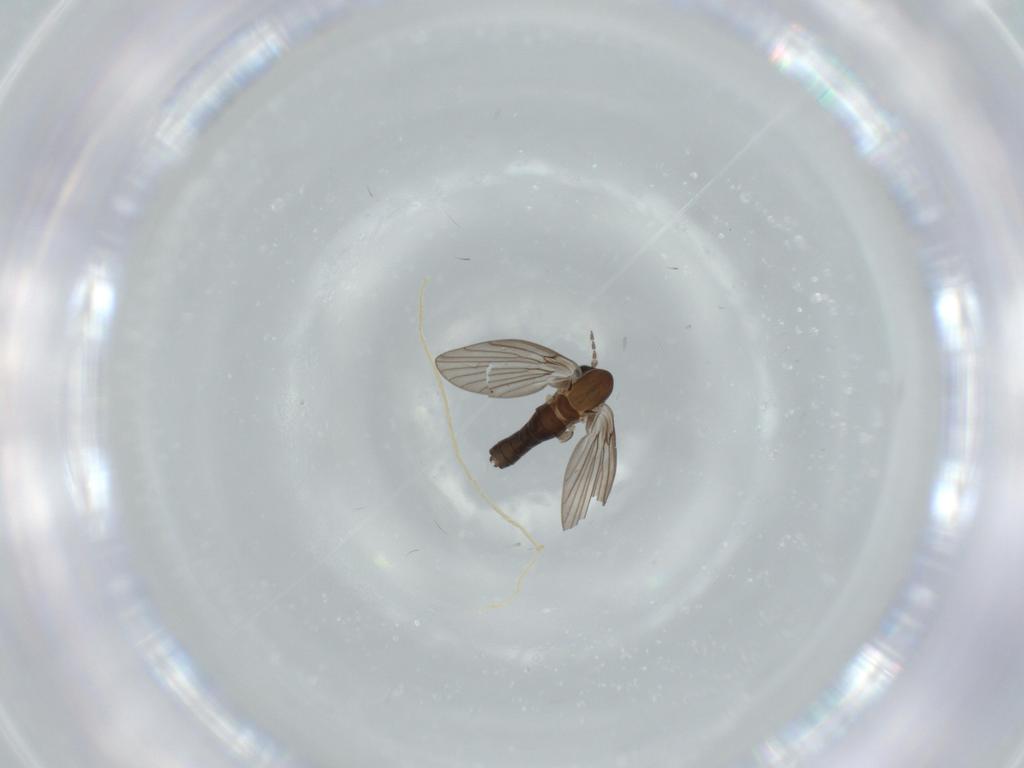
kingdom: Animalia
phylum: Arthropoda
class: Insecta
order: Diptera
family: Psychodidae
